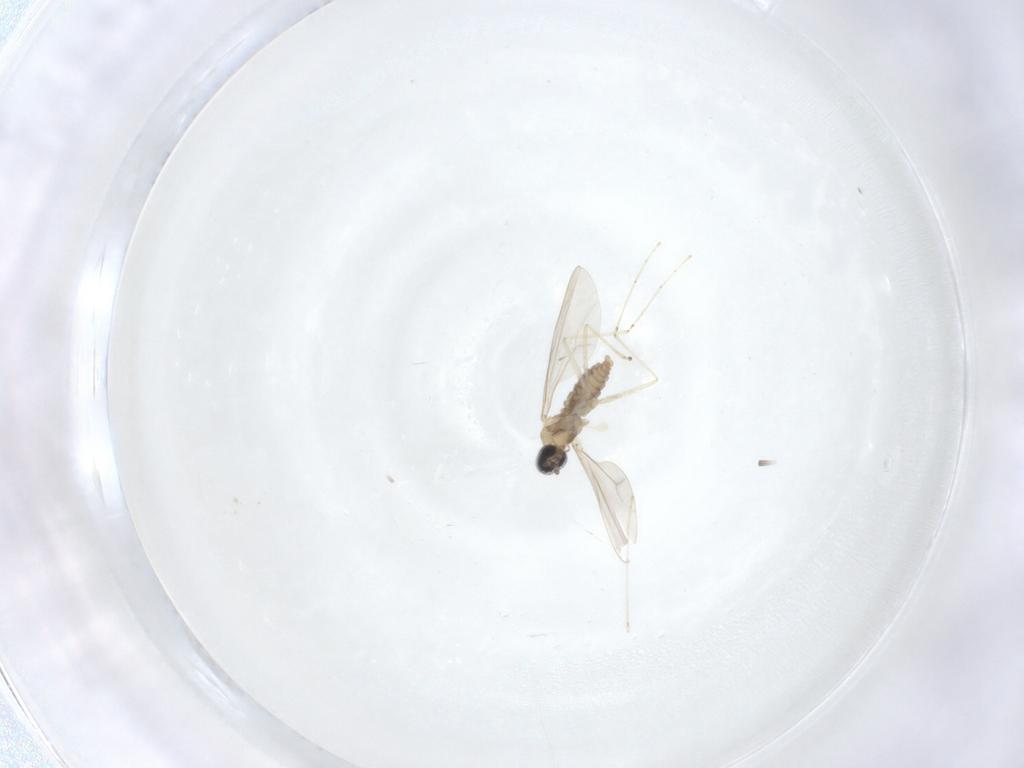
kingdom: Animalia
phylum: Arthropoda
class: Insecta
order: Diptera
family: Cecidomyiidae
